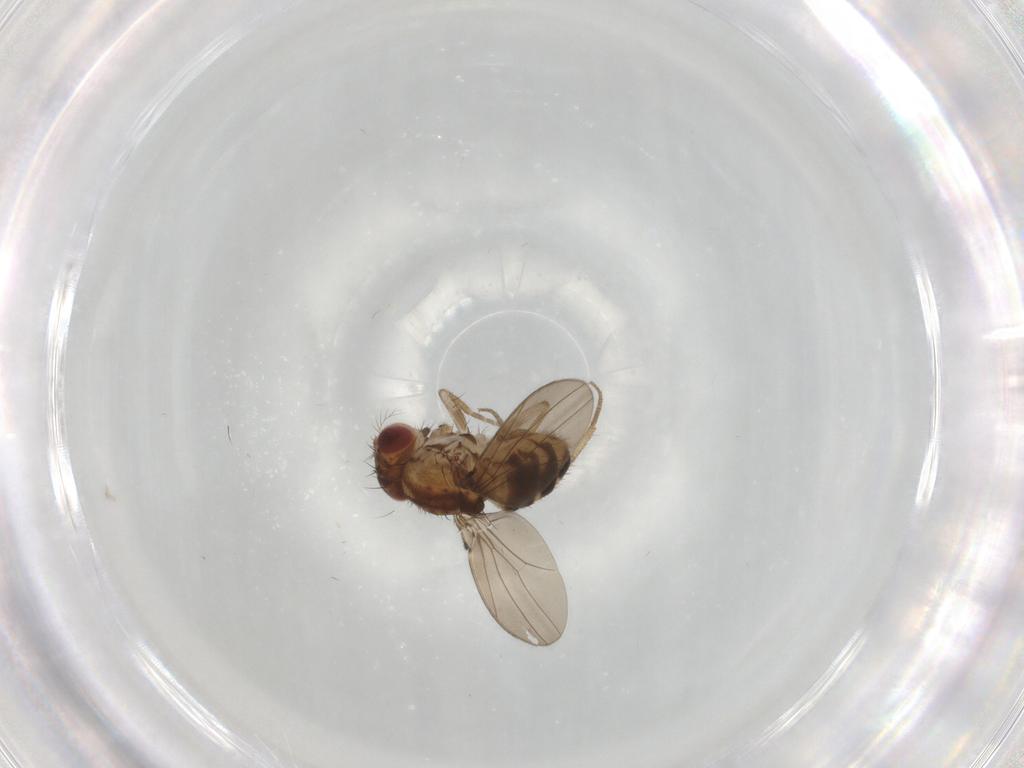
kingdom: Animalia
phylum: Arthropoda
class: Insecta
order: Diptera
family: Drosophilidae
